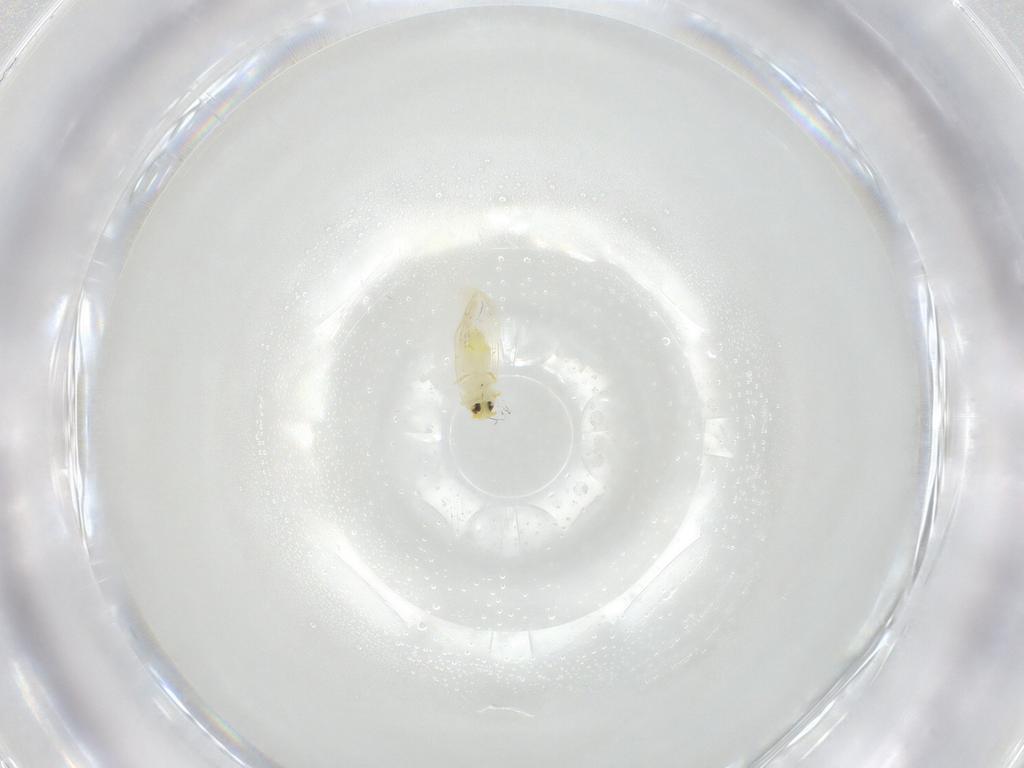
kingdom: Animalia
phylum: Arthropoda
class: Insecta
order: Hemiptera
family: Aleyrodidae
